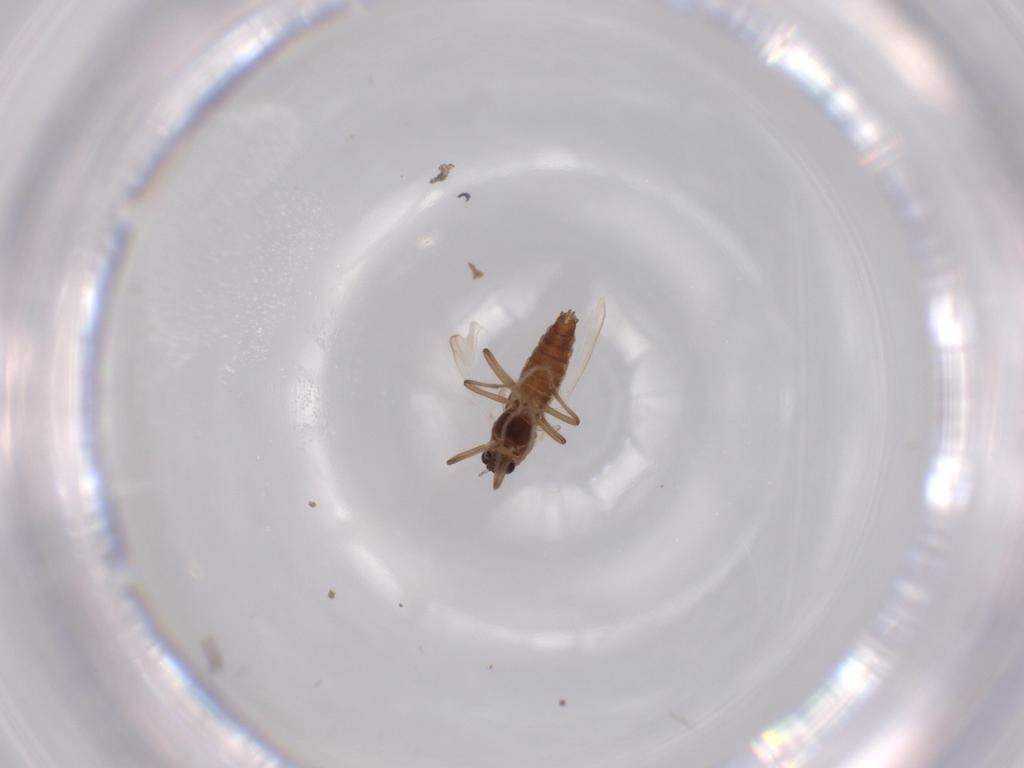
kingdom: Animalia
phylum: Arthropoda
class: Insecta
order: Diptera
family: Chironomidae
